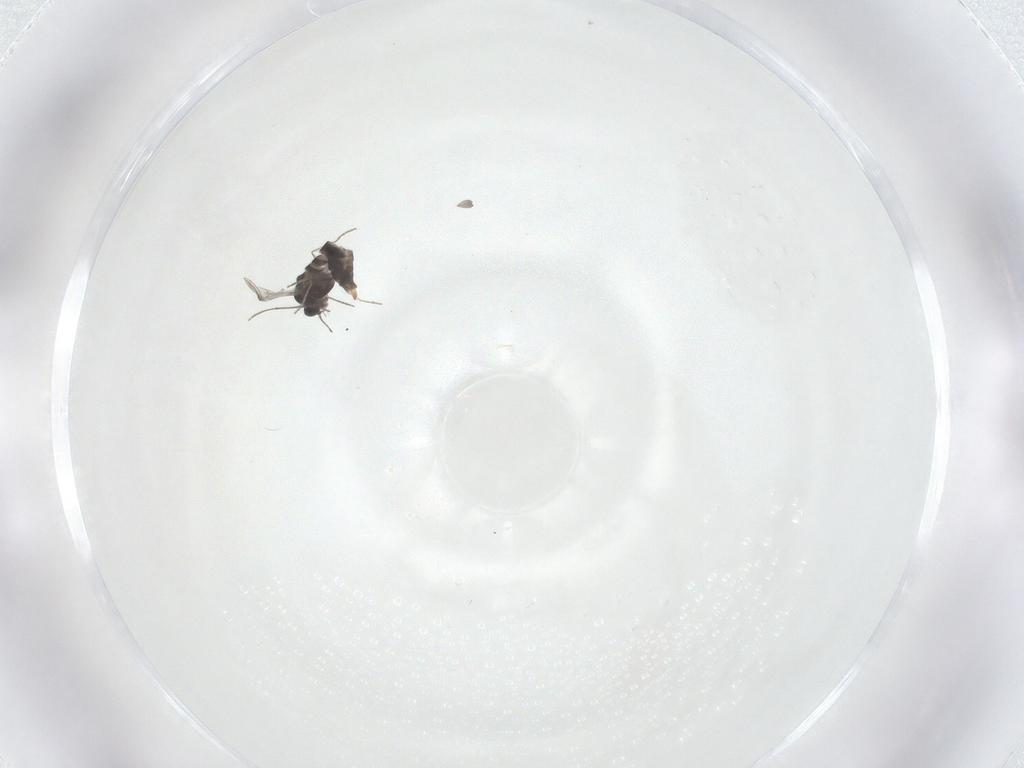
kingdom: Animalia
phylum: Arthropoda
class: Insecta
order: Diptera
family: Chironomidae
